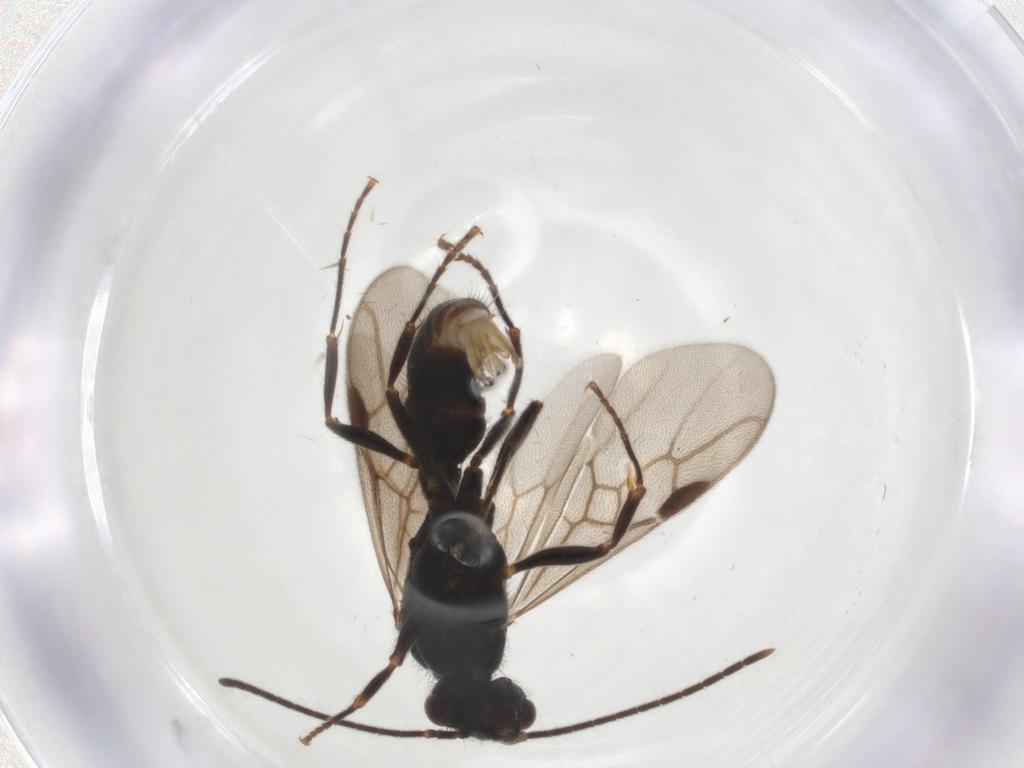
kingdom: Animalia
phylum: Arthropoda
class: Insecta
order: Hymenoptera
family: Formicidae
